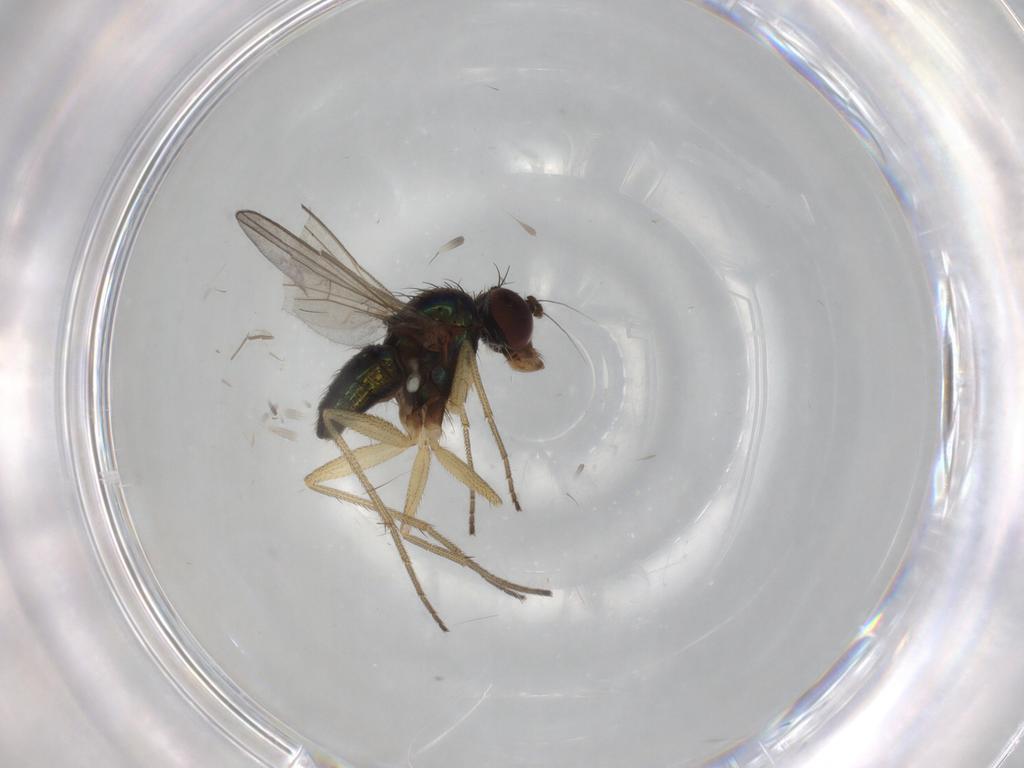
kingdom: Animalia
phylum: Arthropoda
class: Insecta
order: Diptera
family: Dolichopodidae
